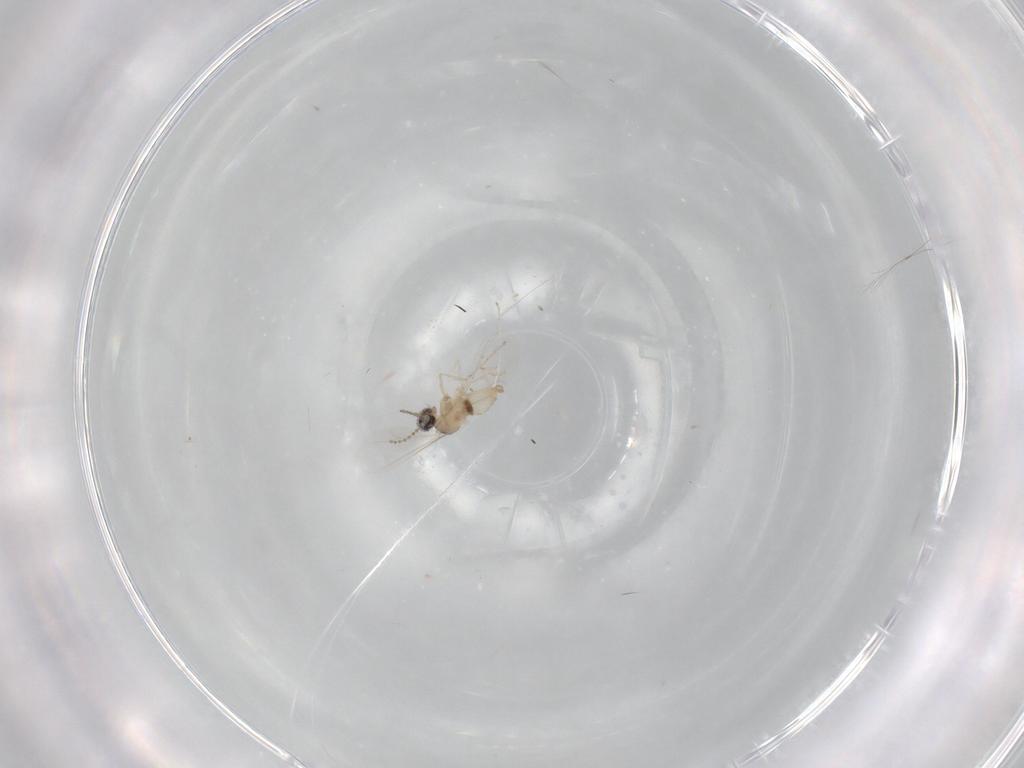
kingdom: Animalia
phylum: Arthropoda
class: Insecta
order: Diptera
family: Cecidomyiidae
